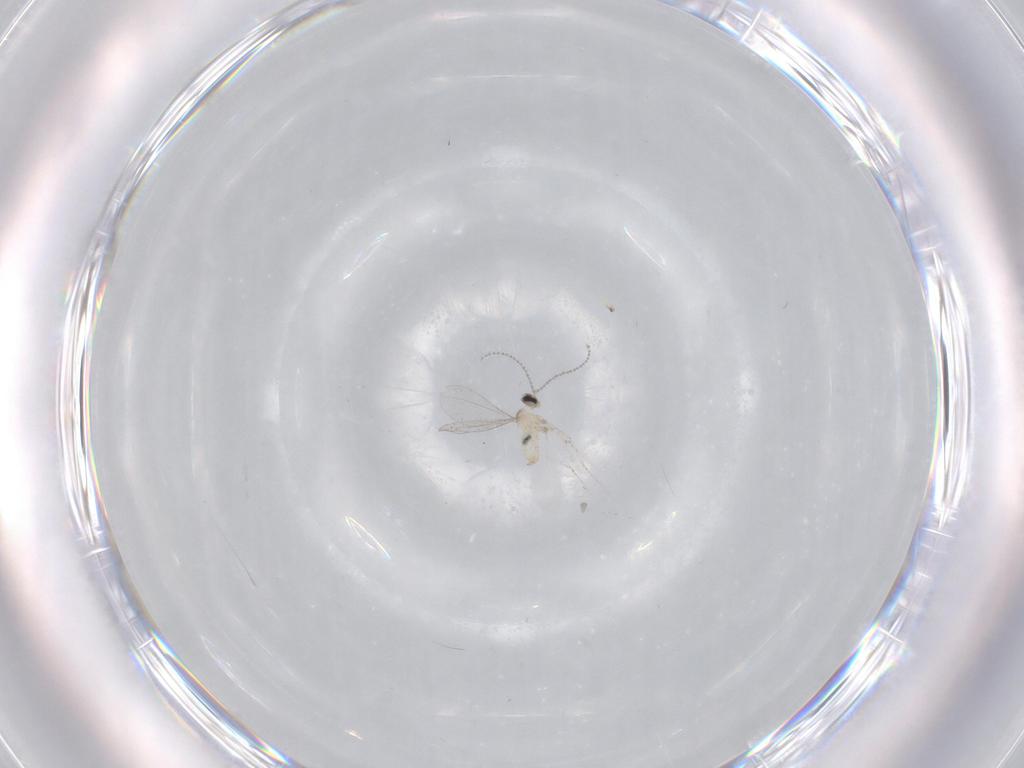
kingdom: Animalia
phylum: Arthropoda
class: Insecta
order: Diptera
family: Cecidomyiidae
